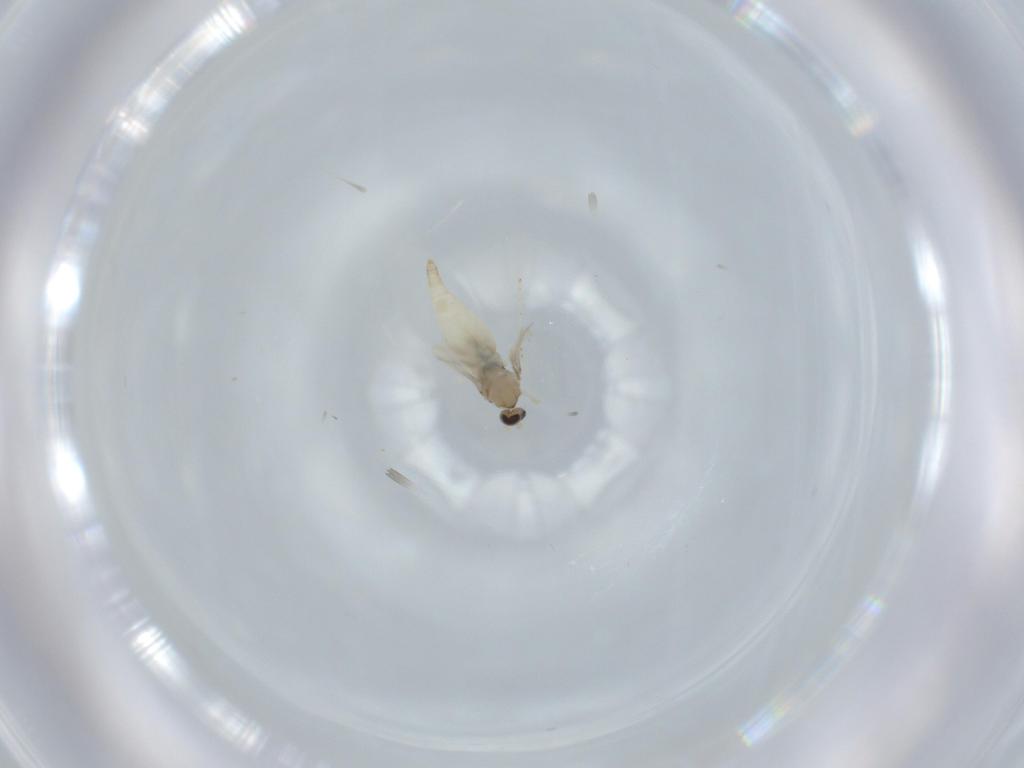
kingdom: Animalia
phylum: Arthropoda
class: Insecta
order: Diptera
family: Cecidomyiidae
